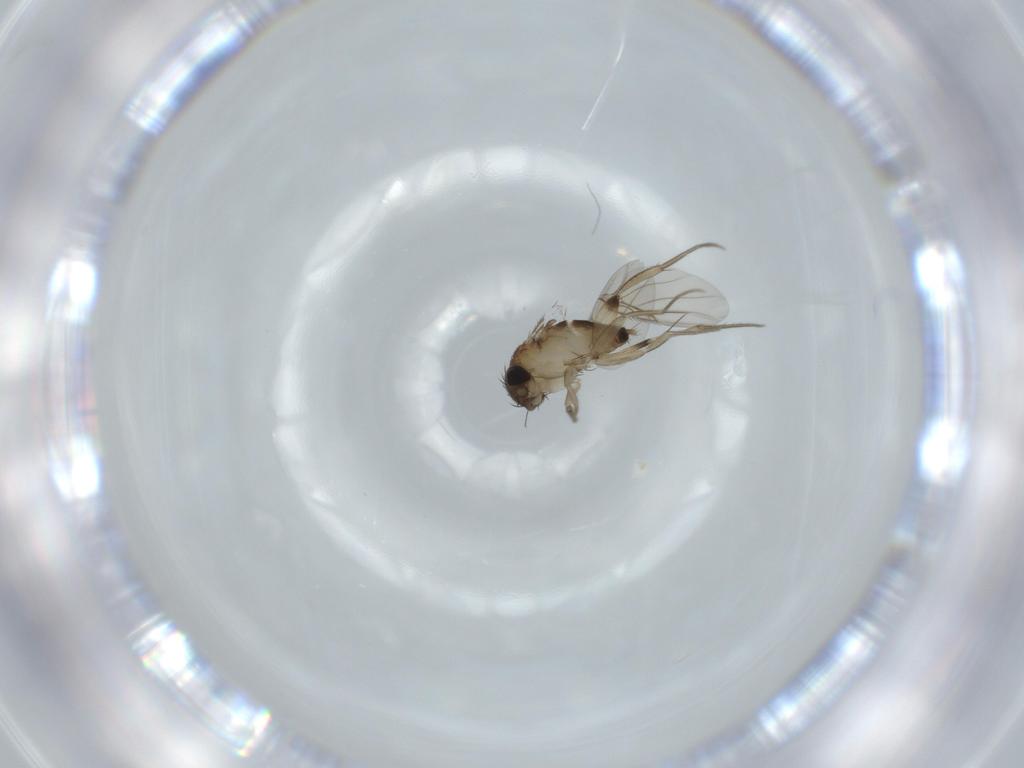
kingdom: Animalia
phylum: Arthropoda
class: Insecta
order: Diptera
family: Phoridae
